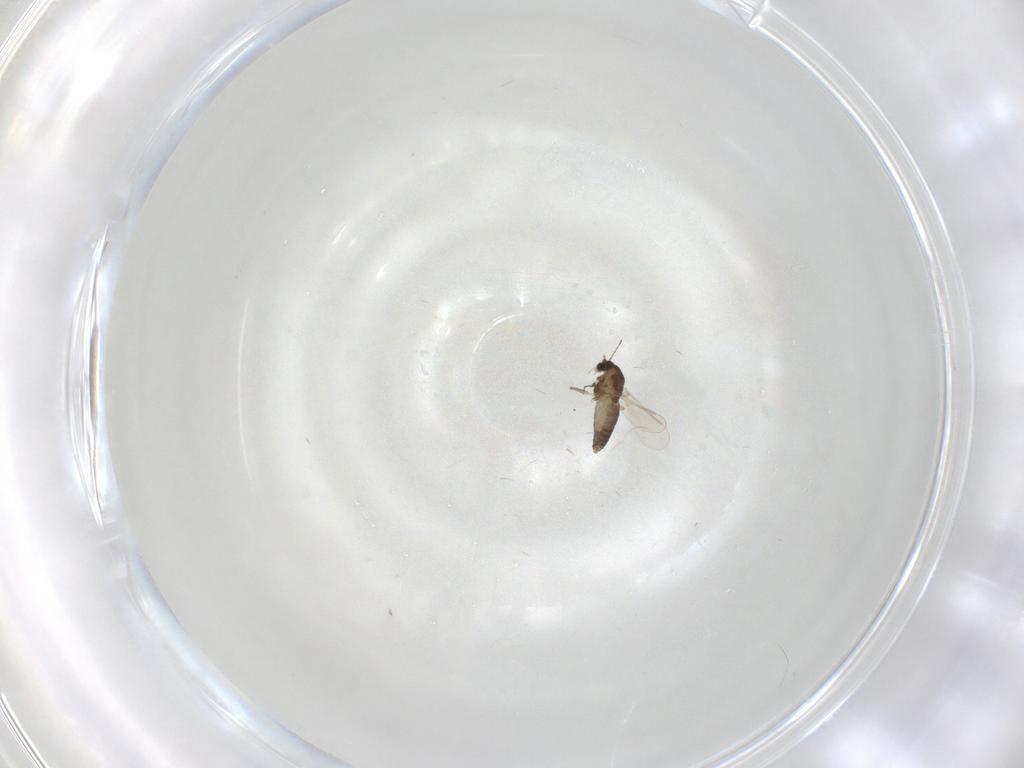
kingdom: Animalia
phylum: Arthropoda
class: Insecta
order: Diptera
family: Chironomidae
